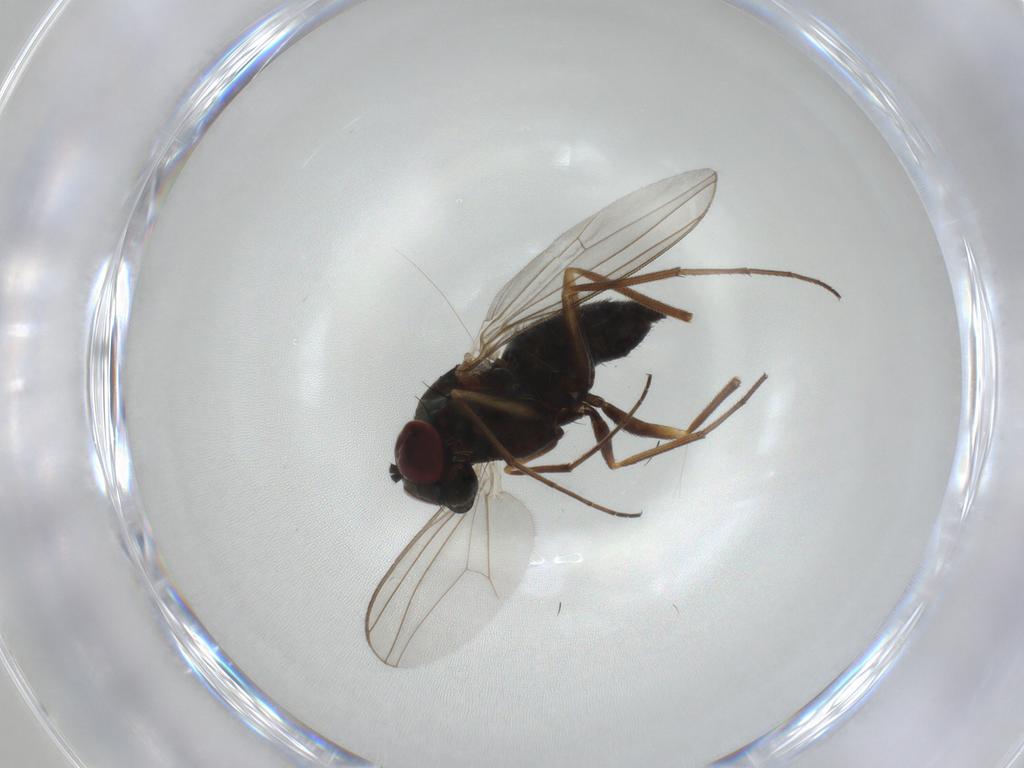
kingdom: Animalia
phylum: Arthropoda
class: Insecta
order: Diptera
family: Dolichopodidae
